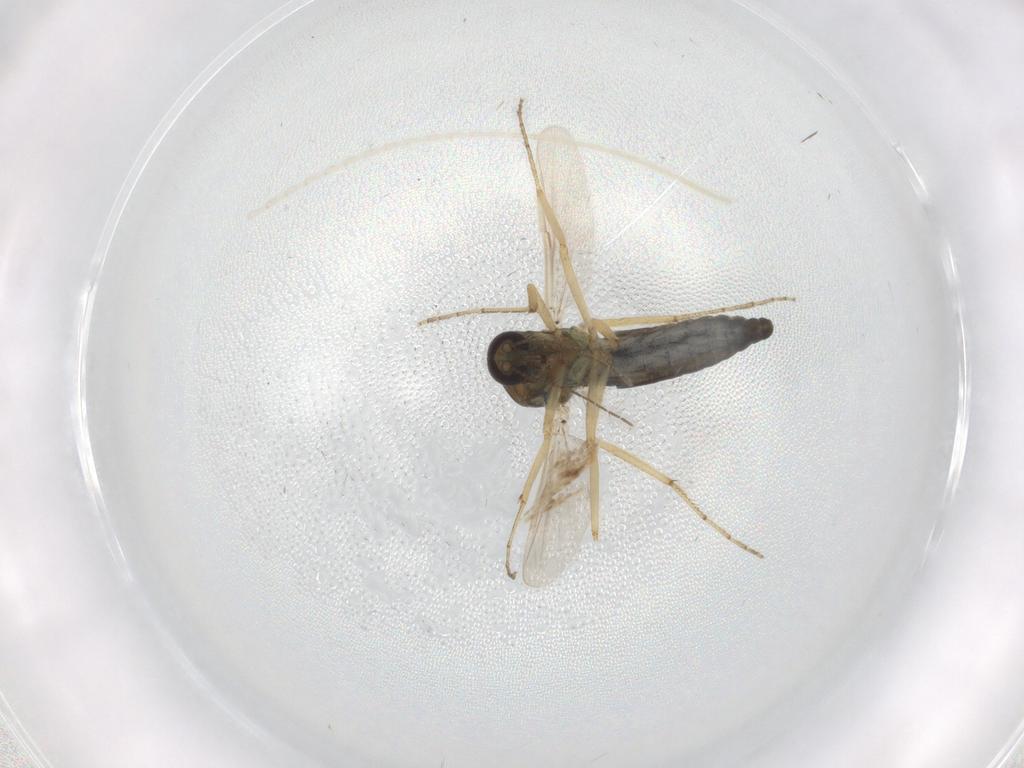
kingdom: Animalia
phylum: Arthropoda
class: Insecta
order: Diptera
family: Ceratopogonidae
